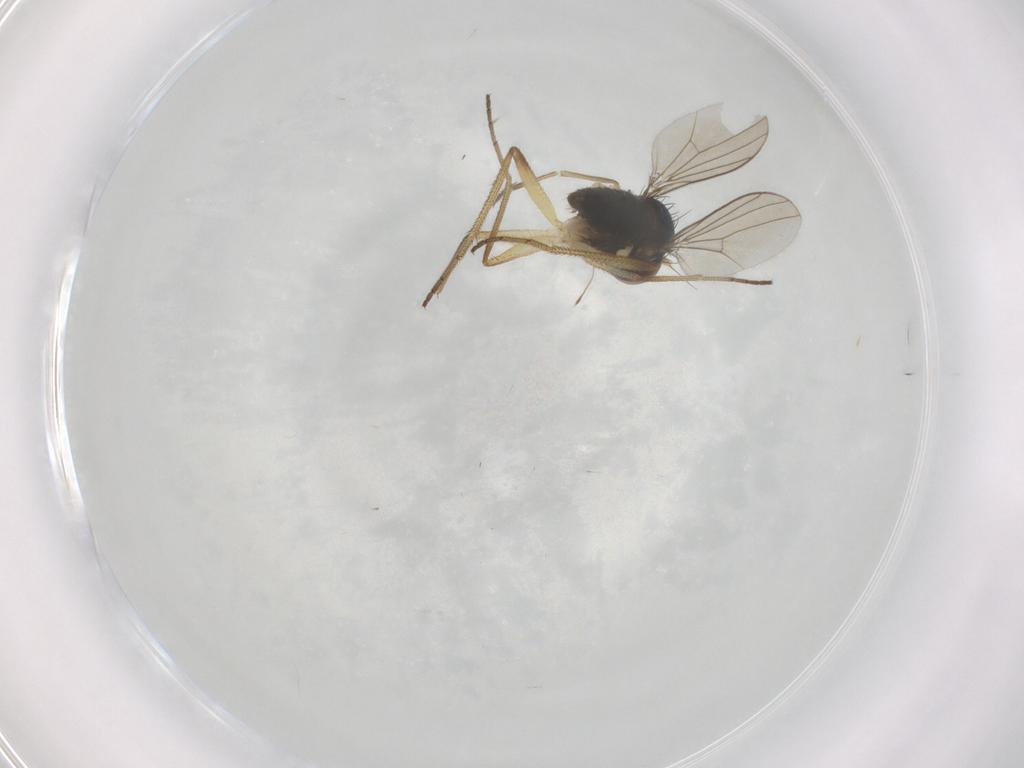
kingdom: Animalia
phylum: Arthropoda
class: Insecta
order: Diptera
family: Dolichopodidae
